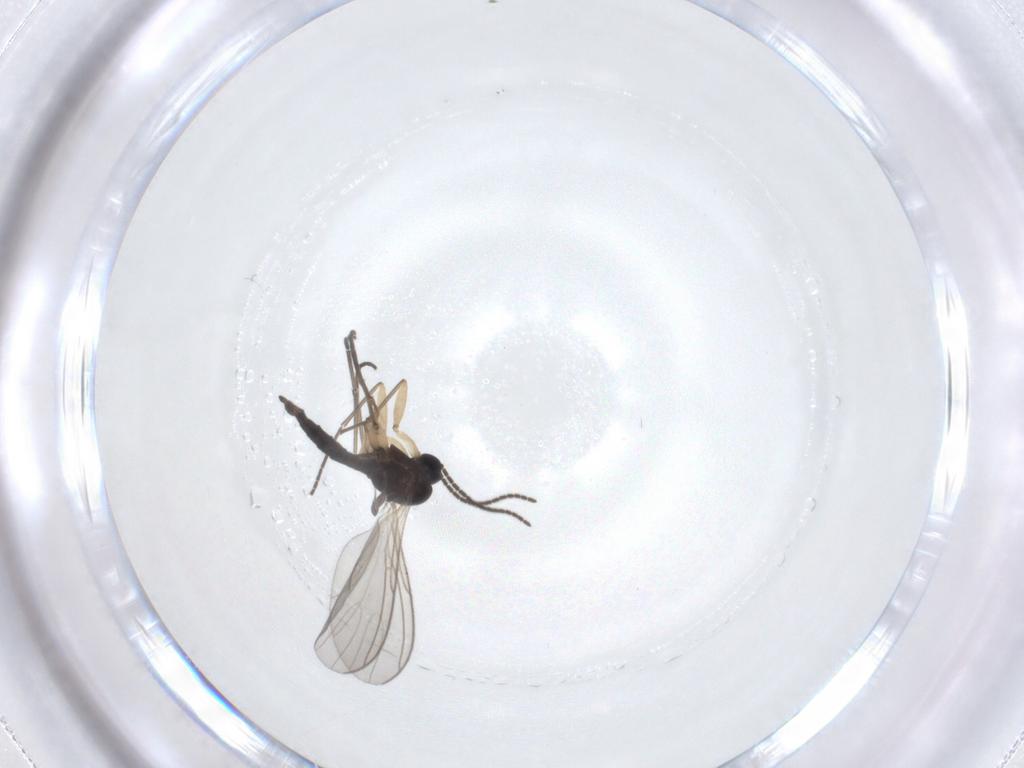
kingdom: Animalia
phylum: Arthropoda
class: Insecta
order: Diptera
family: Sciaridae
